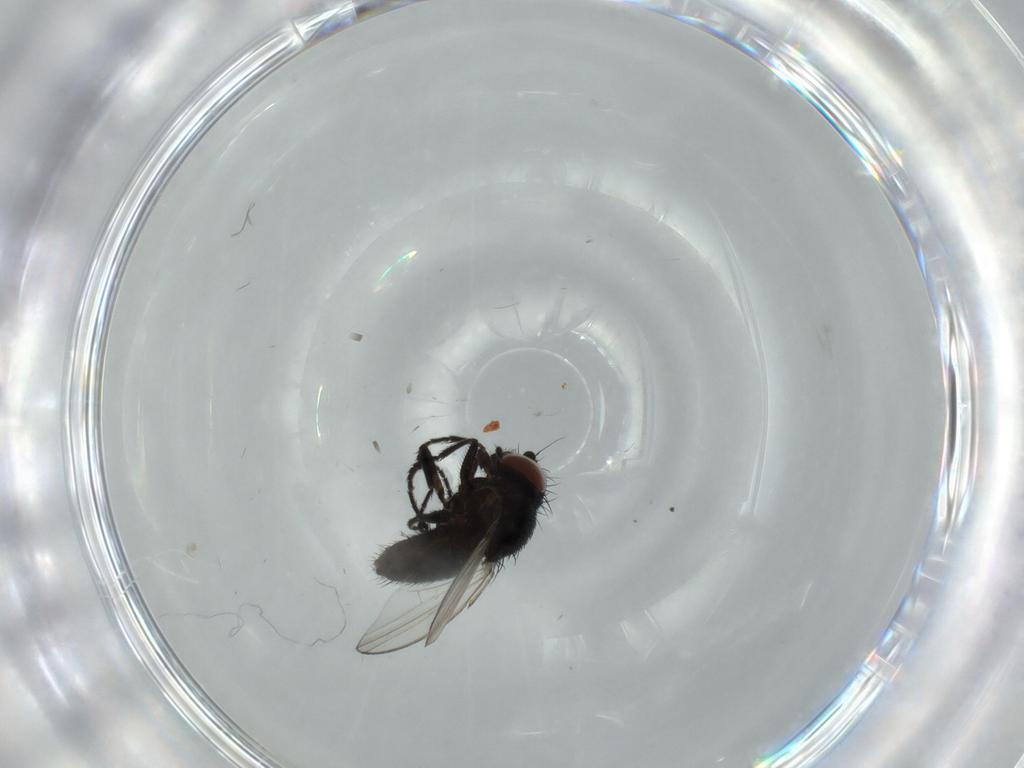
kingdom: Animalia
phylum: Arthropoda
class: Insecta
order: Diptera
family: Milichiidae
